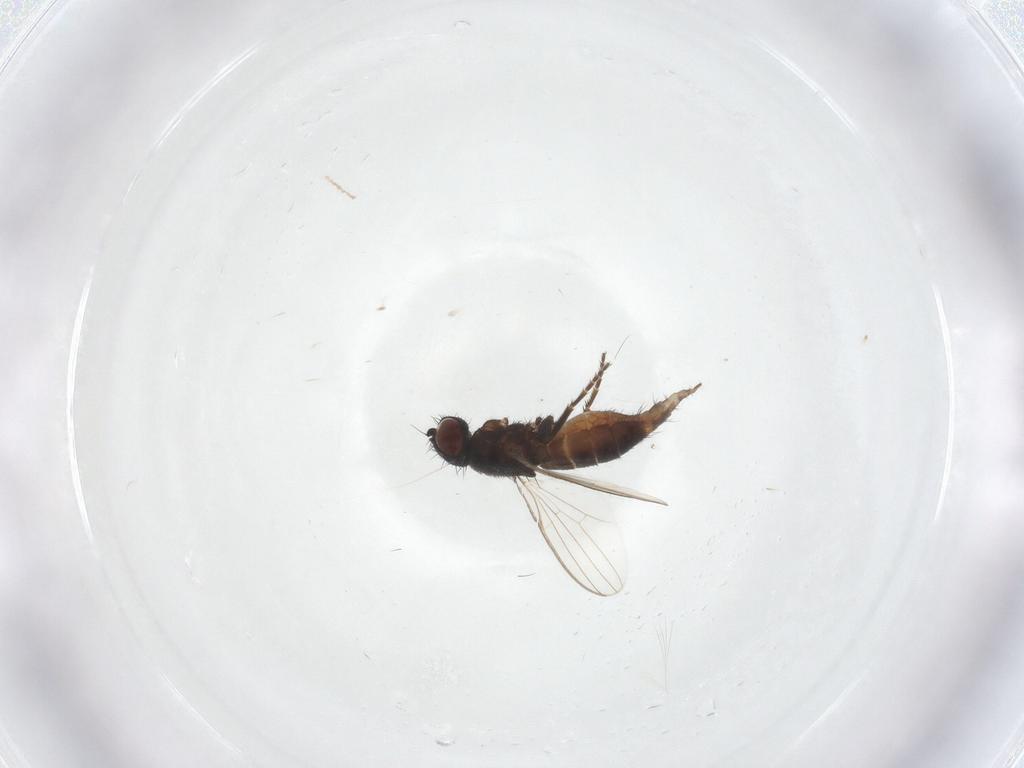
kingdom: Animalia
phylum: Arthropoda
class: Insecta
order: Diptera
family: Milichiidae
